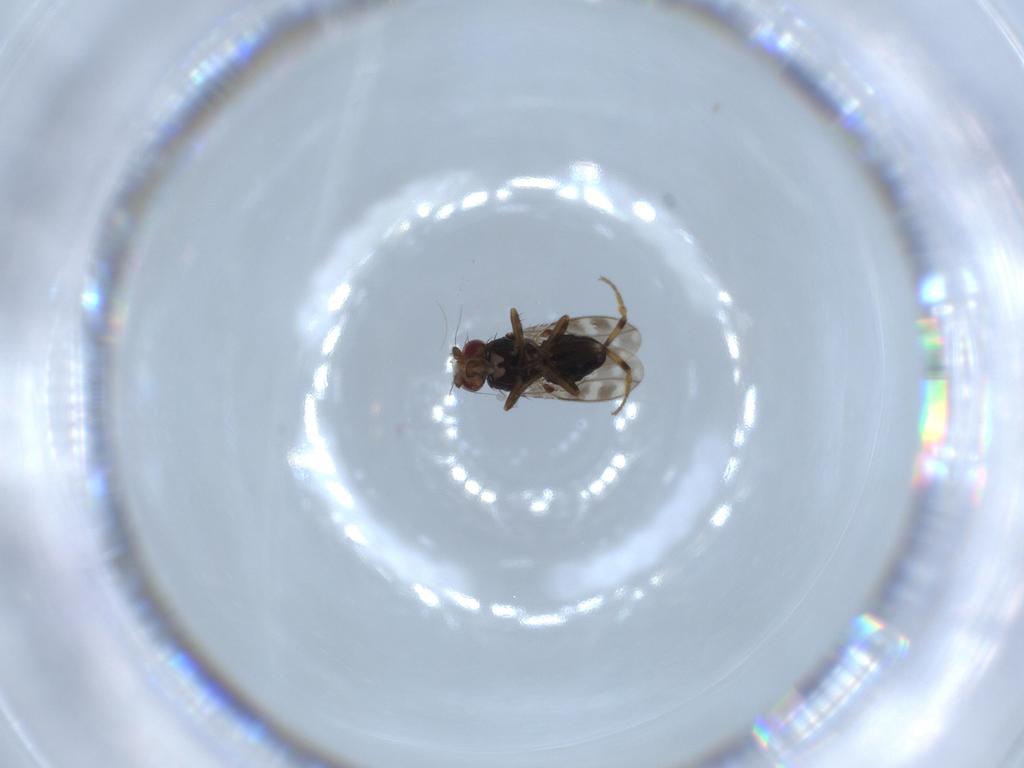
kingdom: Animalia
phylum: Arthropoda
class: Insecta
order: Diptera
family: Sphaeroceridae
